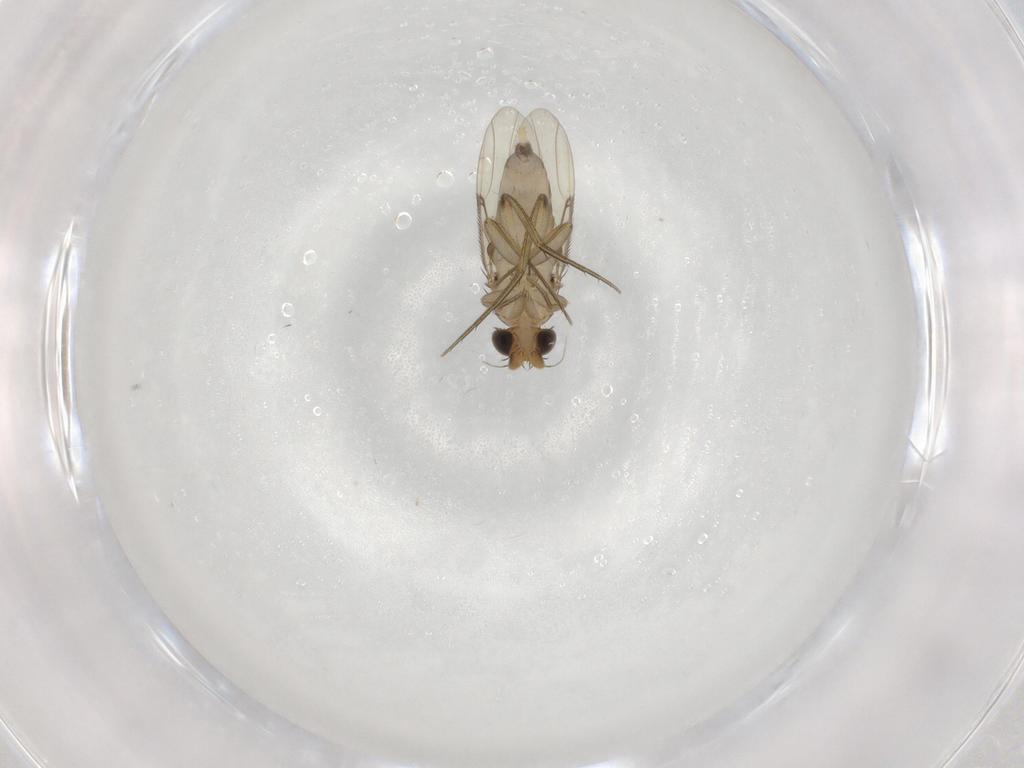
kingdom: Animalia
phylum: Arthropoda
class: Insecta
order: Diptera
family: Phoridae
